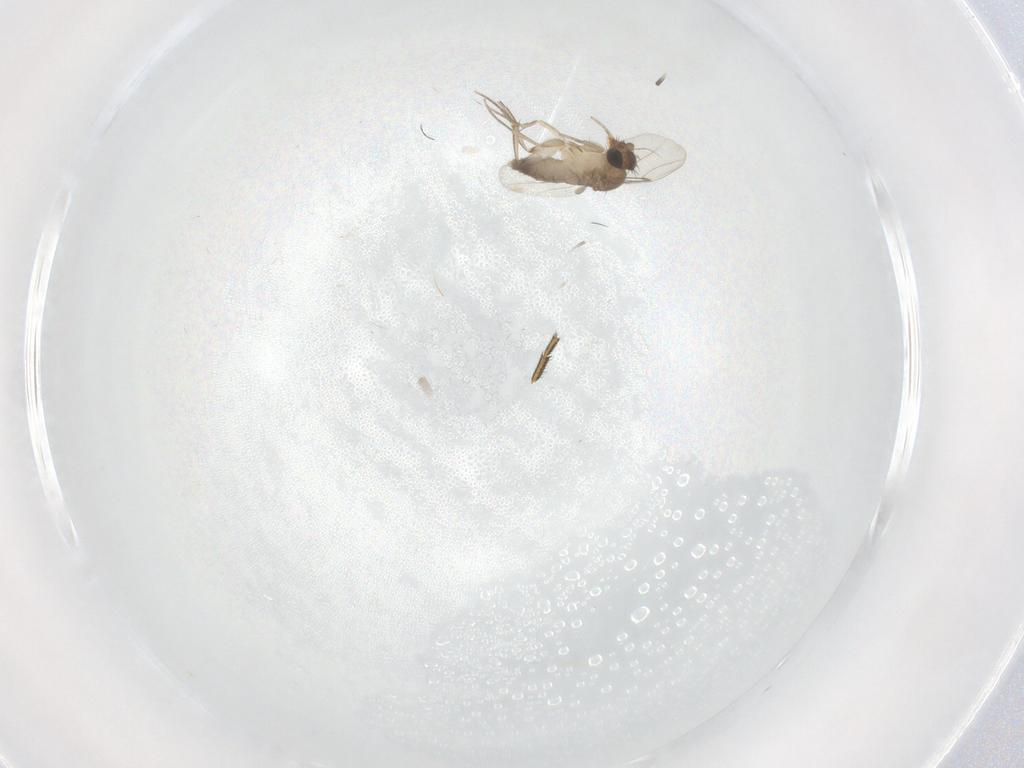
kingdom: Animalia
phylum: Arthropoda
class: Insecta
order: Diptera
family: Phoridae
